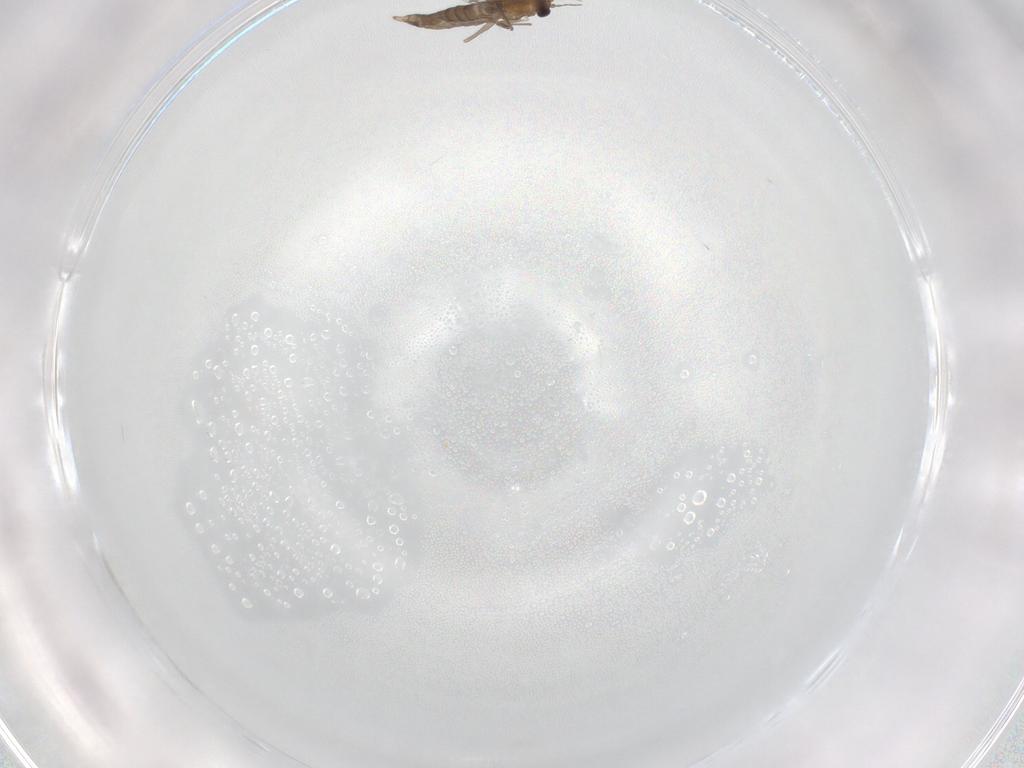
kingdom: Animalia
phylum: Arthropoda
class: Insecta
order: Diptera
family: Chironomidae
